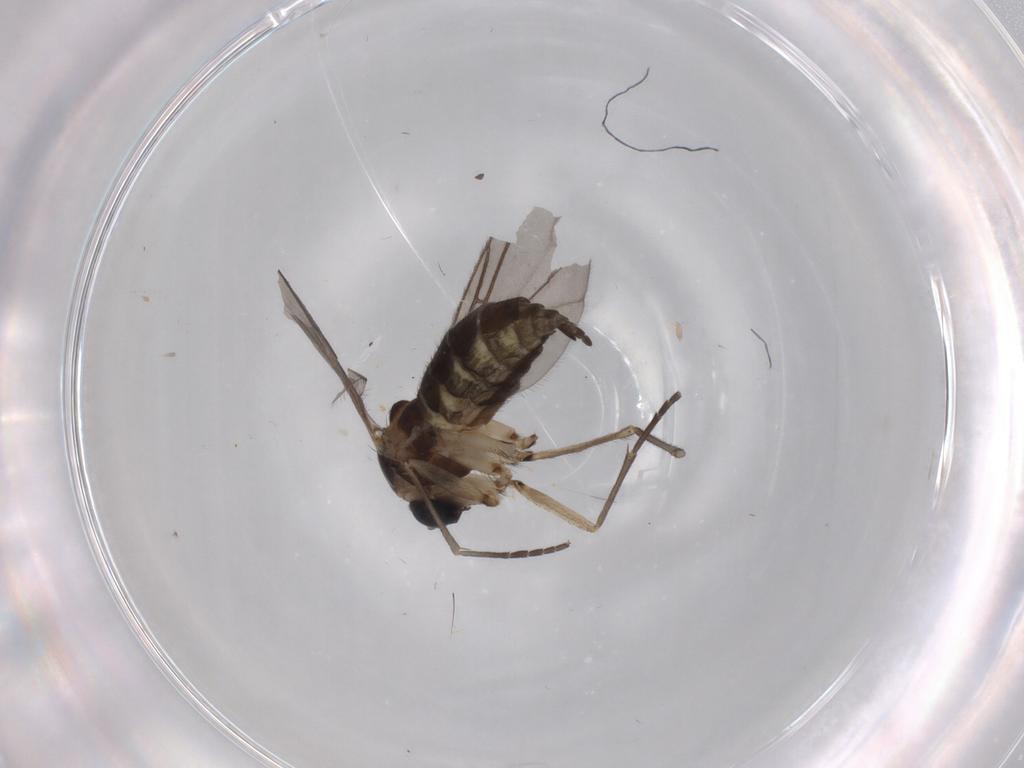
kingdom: Animalia
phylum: Arthropoda
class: Insecta
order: Diptera
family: Sciaridae
